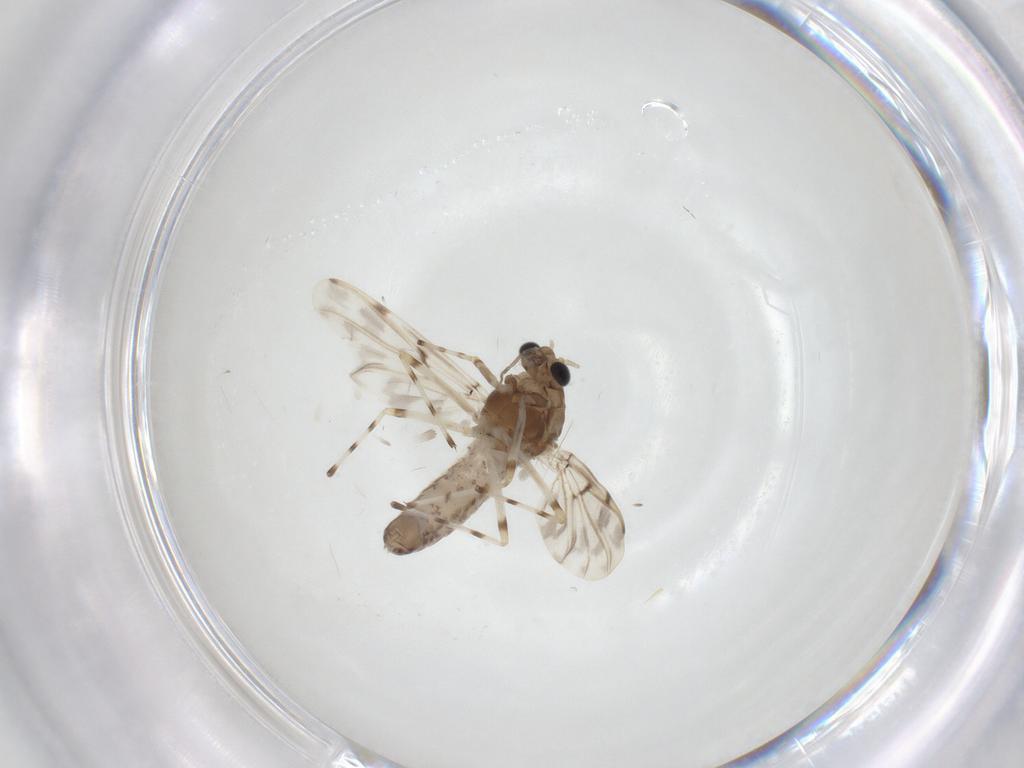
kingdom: Animalia
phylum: Arthropoda
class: Insecta
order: Diptera
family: Chironomidae
